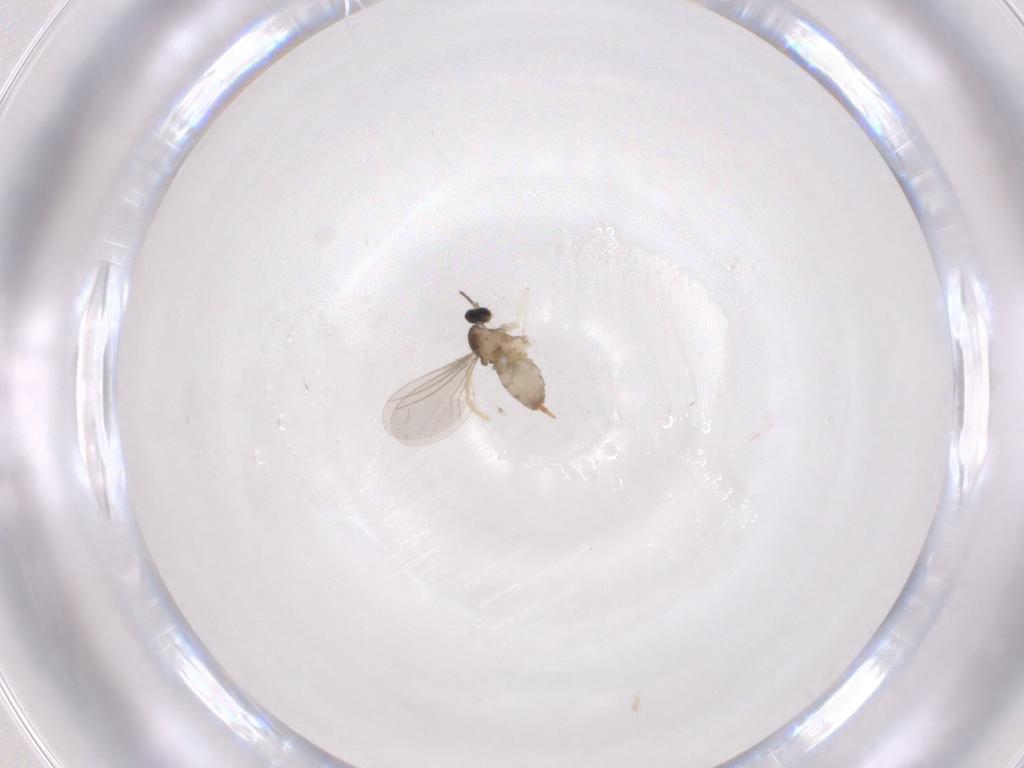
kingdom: Animalia
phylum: Arthropoda
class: Insecta
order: Diptera
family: Cecidomyiidae
